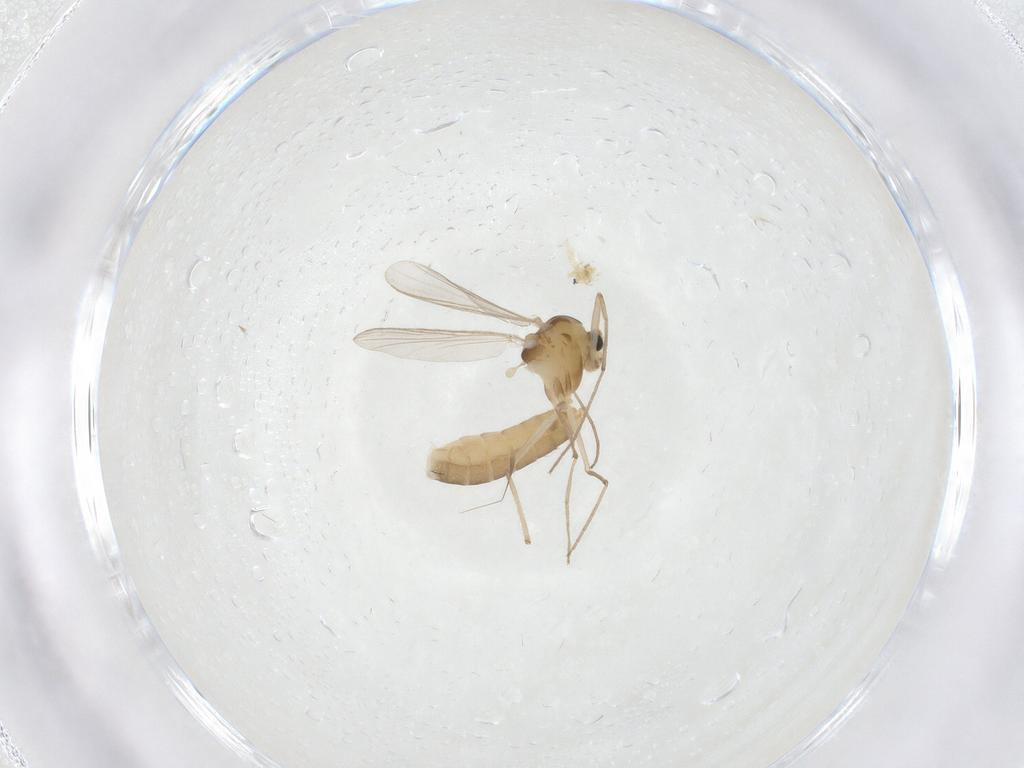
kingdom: Animalia
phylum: Arthropoda
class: Insecta
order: Diptera
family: Chironomidae
